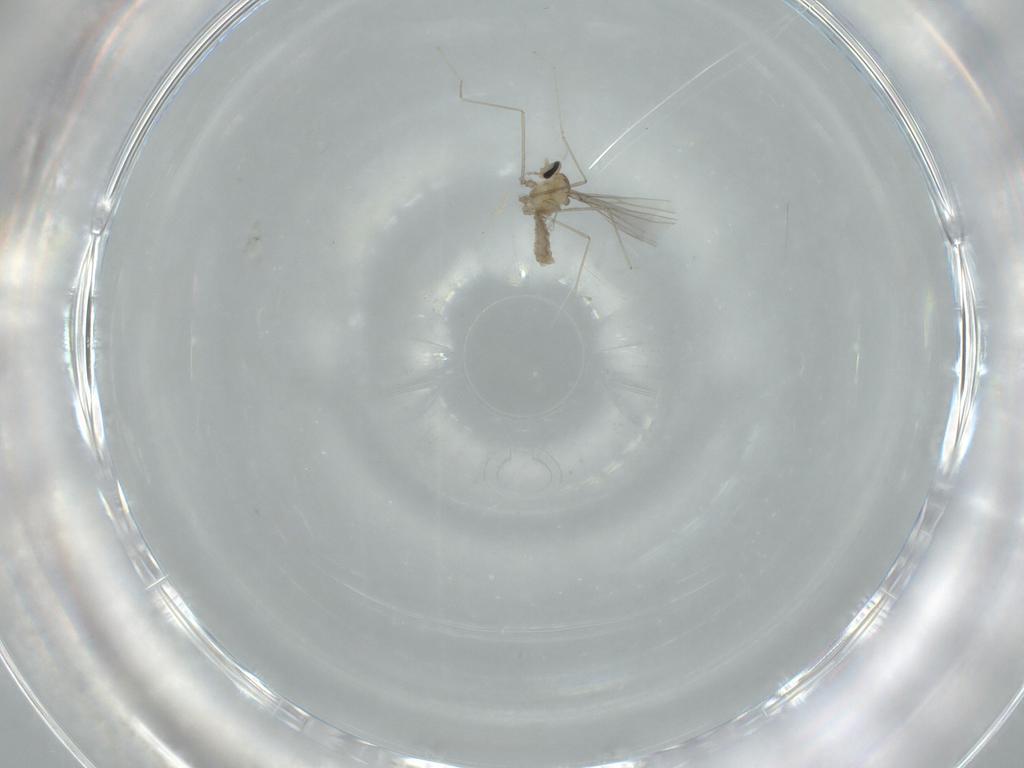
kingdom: Animalia
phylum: Arthropoda
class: Insecta
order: Diptera
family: Cecidomyiidae
